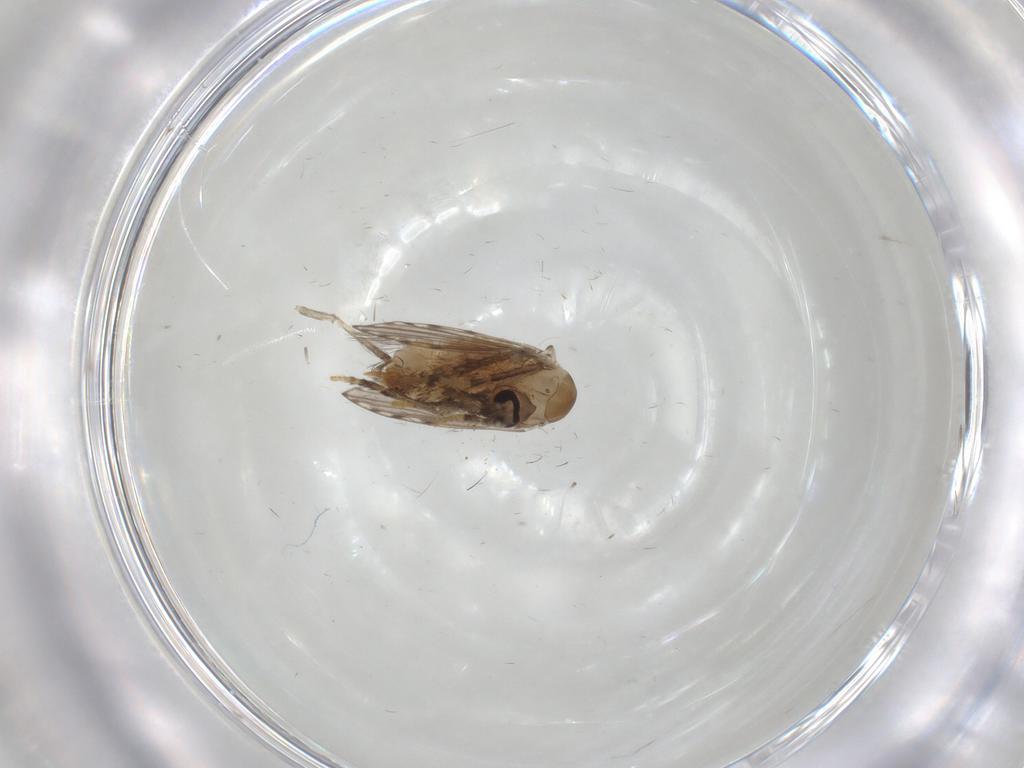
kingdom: Animalia
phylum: Arthropoda
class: Insecta
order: Diptera
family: Psychodidae
